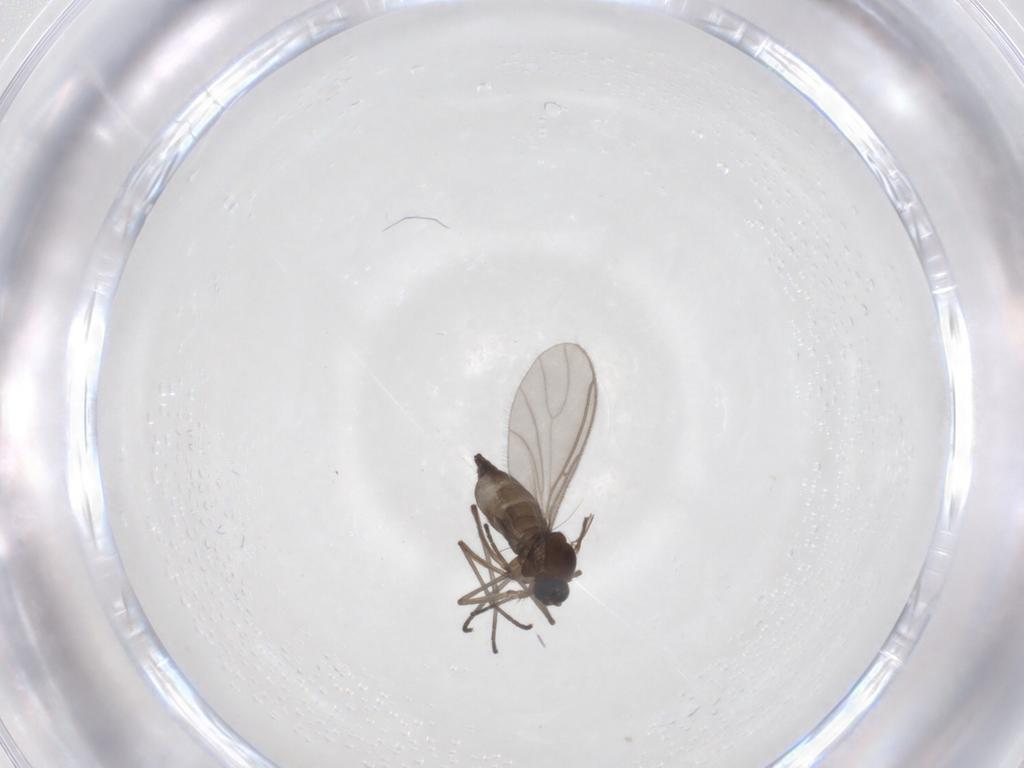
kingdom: Animalia
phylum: Arthropoda
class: Insecta
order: Diptera
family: Sciaridae
